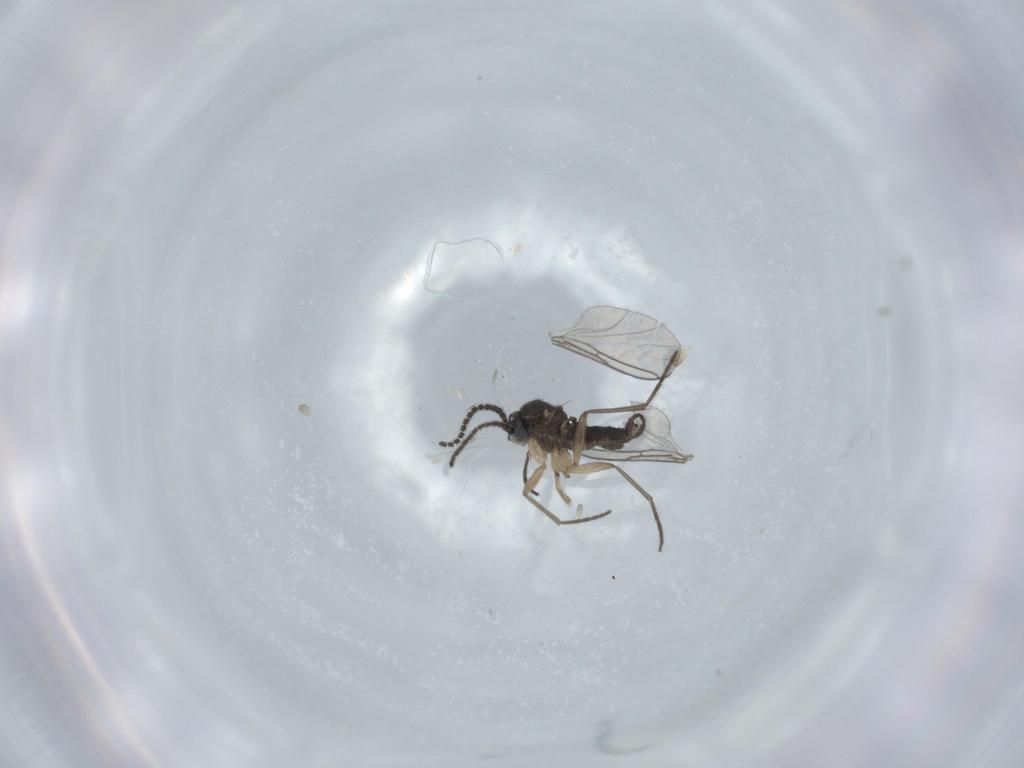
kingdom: Animalia
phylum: Arthropoda
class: Insecta
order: Diptera
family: Sciaridae
